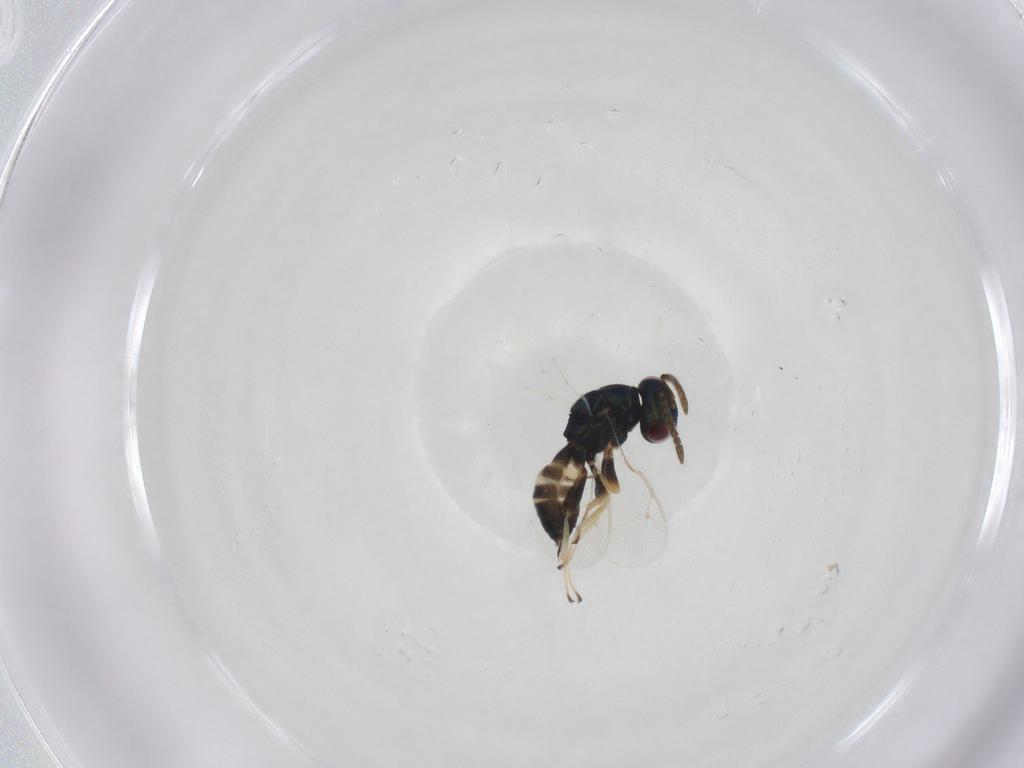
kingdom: Animalia
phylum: Arthropoda
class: Insecta
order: Hymenoptera
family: Pteromalidae
